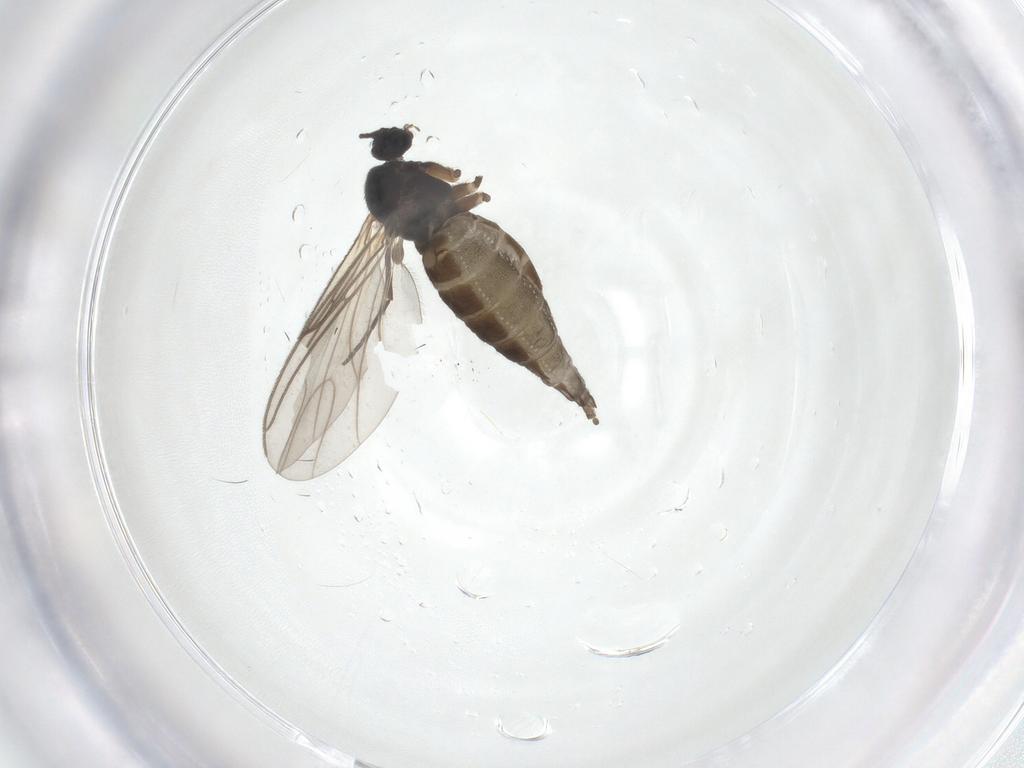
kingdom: Animalia
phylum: Arthropoda
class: Insecta
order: Diptera
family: Sciaridae
